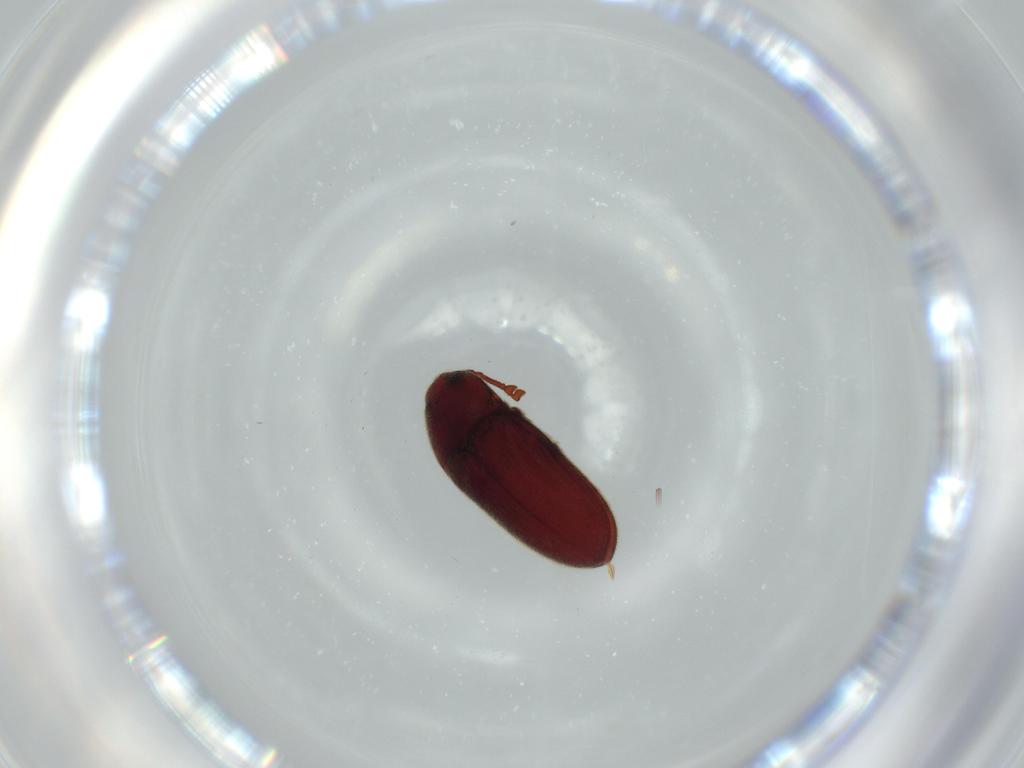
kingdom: Animalia
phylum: Arthropoda
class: Insecta
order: Coleoptera
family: Throscidae
